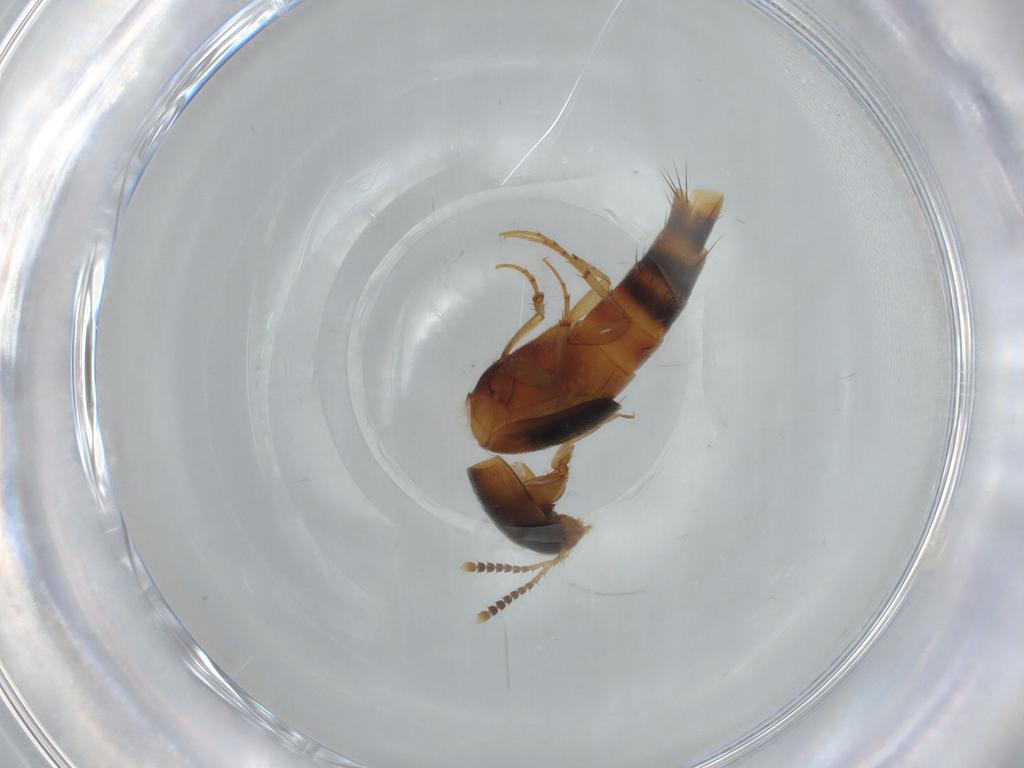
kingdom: Animalia
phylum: Arthropoda
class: Insecta
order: Coleoptera
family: Staphylinidae
